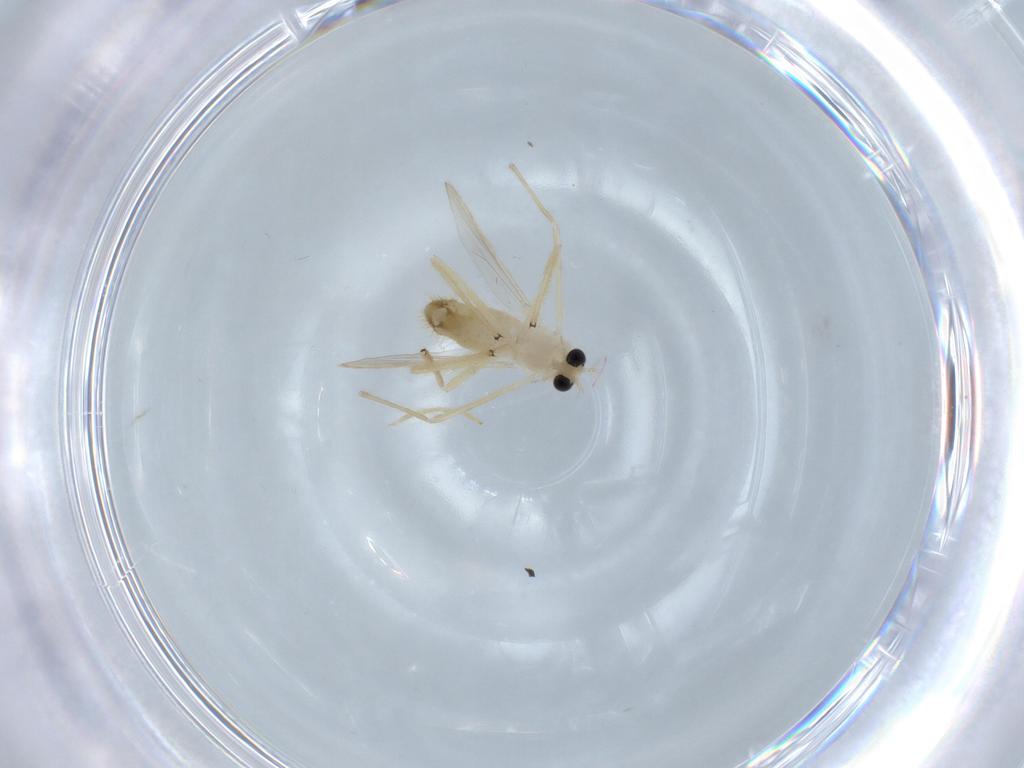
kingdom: Animalia
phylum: Arthropoda
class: Insecta
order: Diptera
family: Chironomidae
